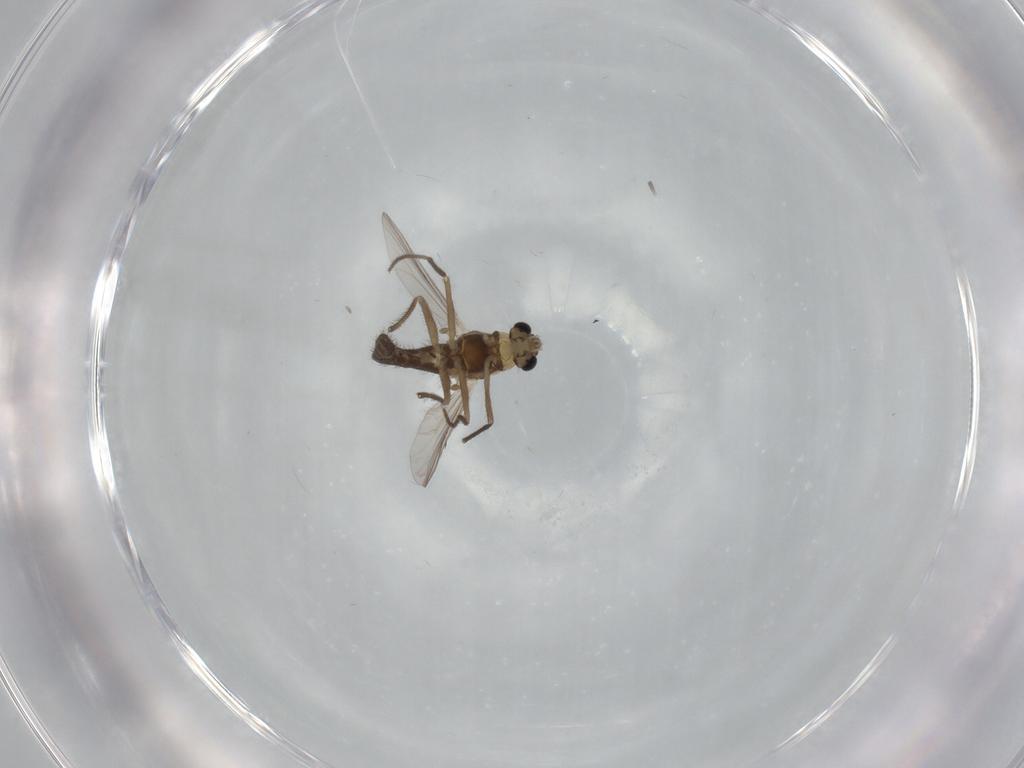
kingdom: Animalia
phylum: Arthropoda
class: Insecta
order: Diptera
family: Chironomidae
